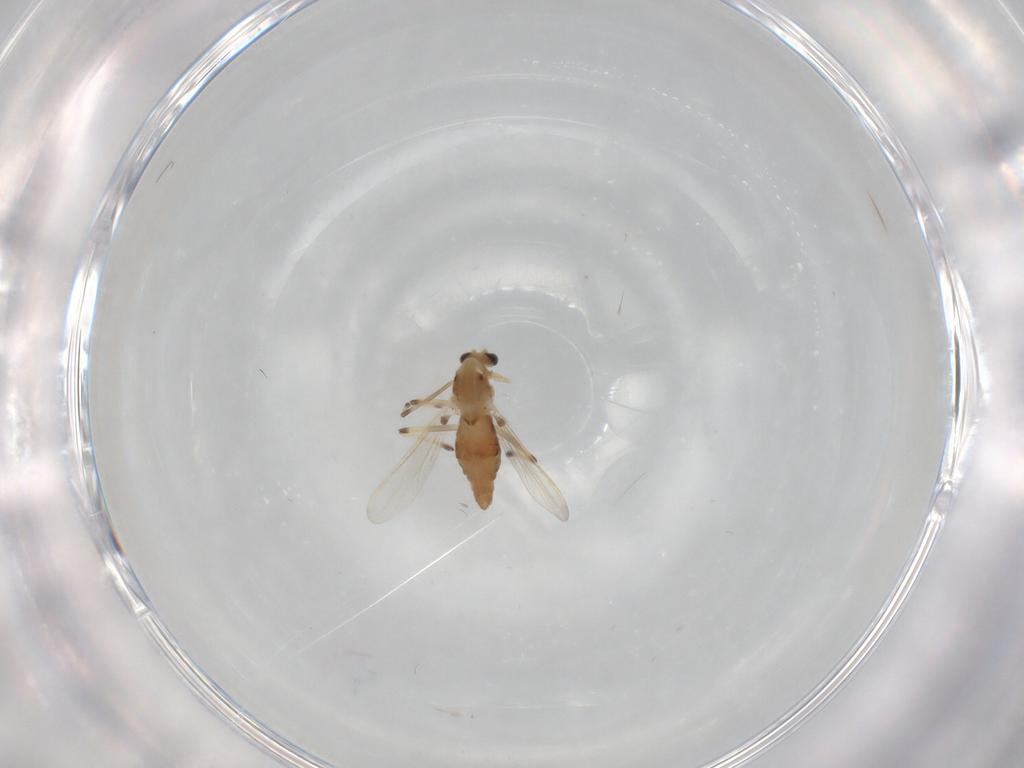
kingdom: Animalia
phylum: Arthropoda
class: Insecta
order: Diptera
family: Chironomidae
